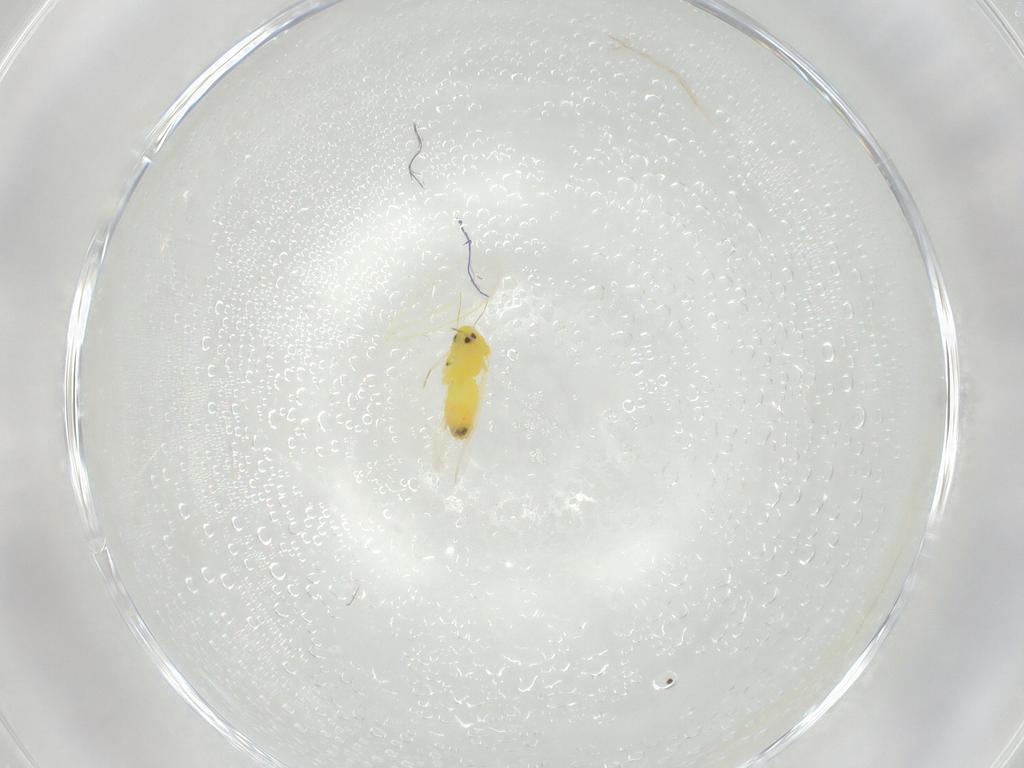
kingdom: Animalia
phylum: Arthropoda
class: Insecta
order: Hemiptera
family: Aleyrodidae
